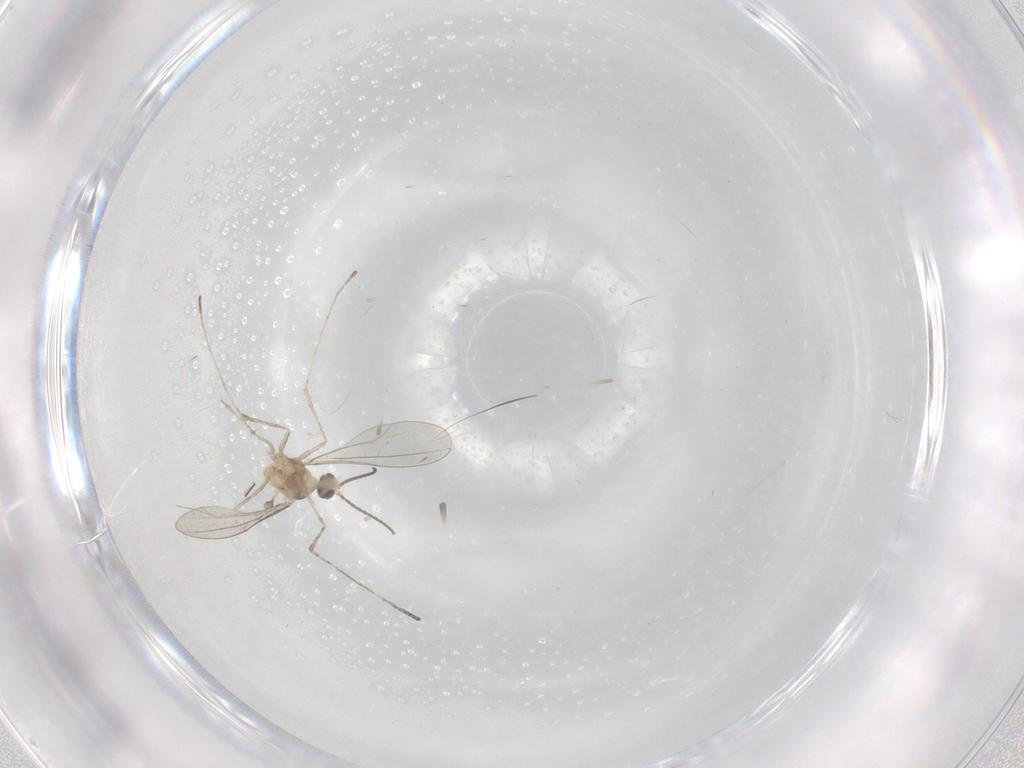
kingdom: Animalia
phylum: Arthropoda
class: Insecta
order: Diptera
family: Cecidomyiidae
